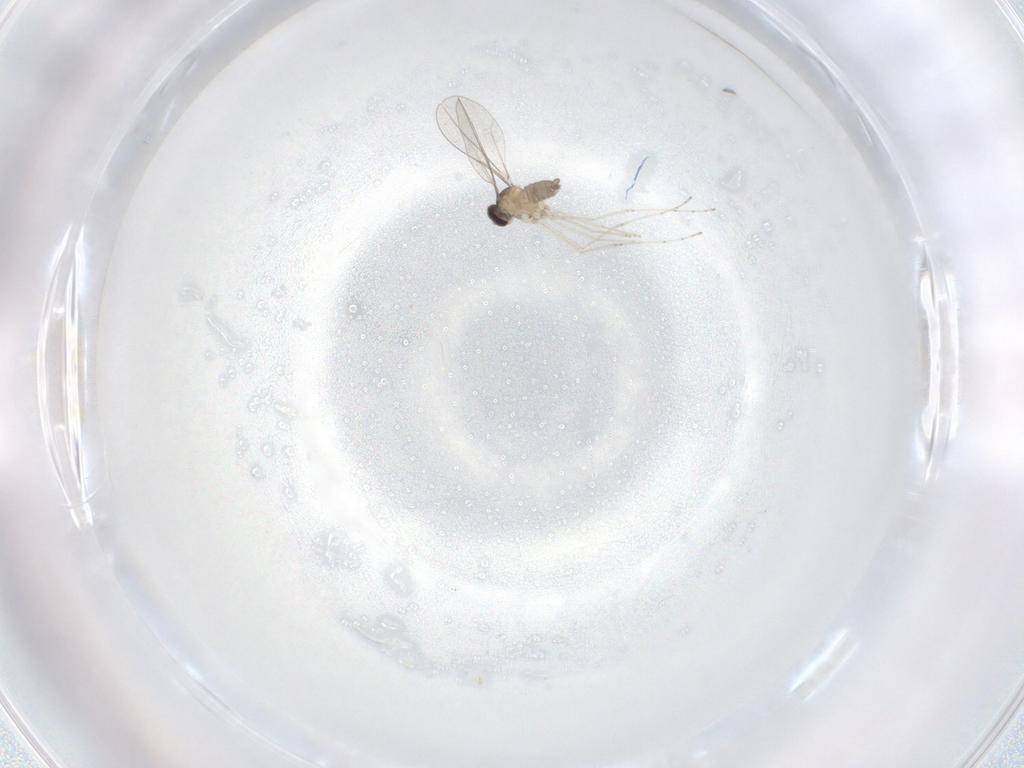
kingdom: Animalia
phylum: Arthropoda
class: Insecta
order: Diptera
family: Cecidomyiidae
